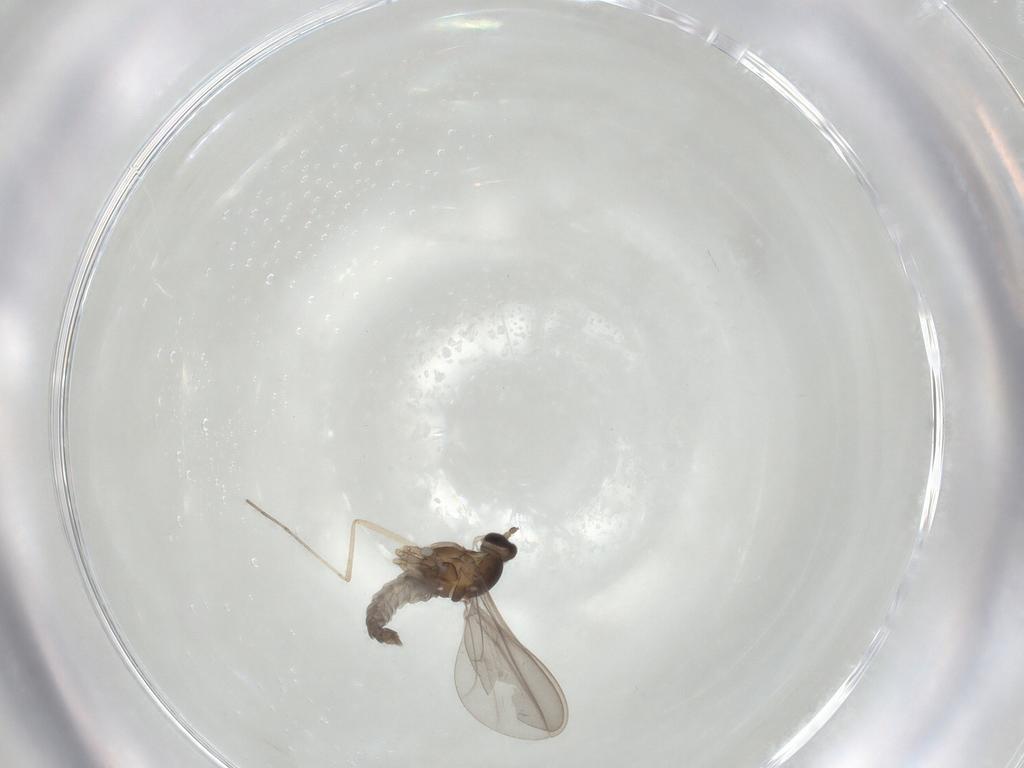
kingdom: Animalia
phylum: Arthropoda
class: Insecta
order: Diptera
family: Cecidomyiidae
